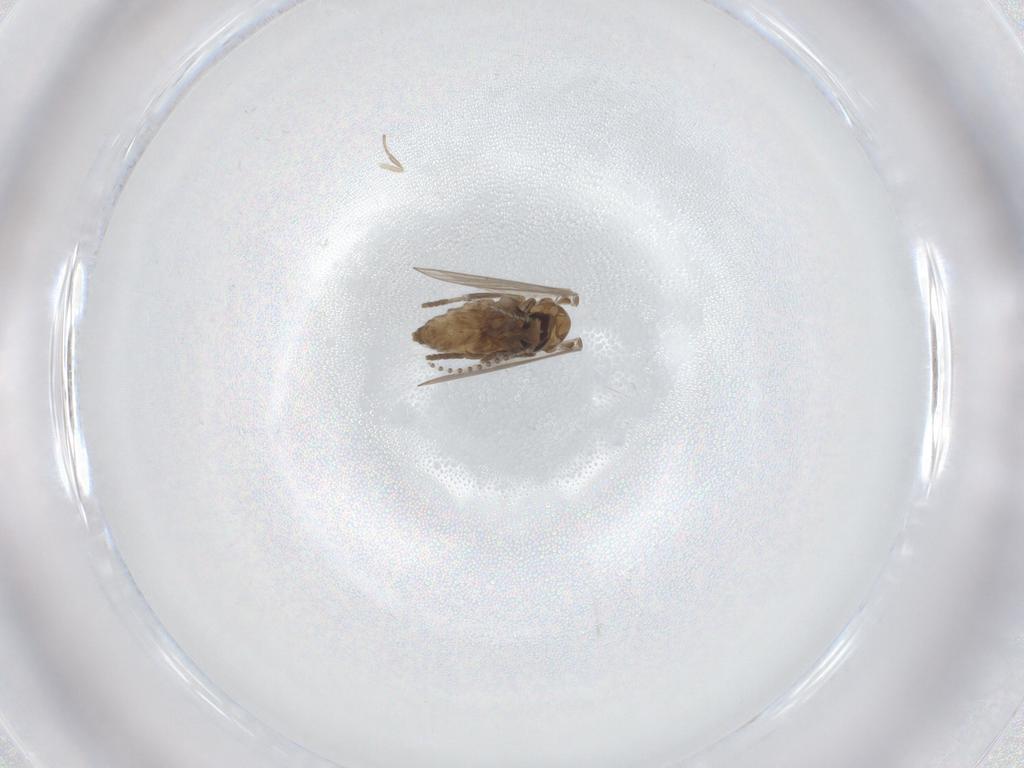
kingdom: Animalia
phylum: Arthropoda
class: Insecta
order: Diptera
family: Psychodidae
